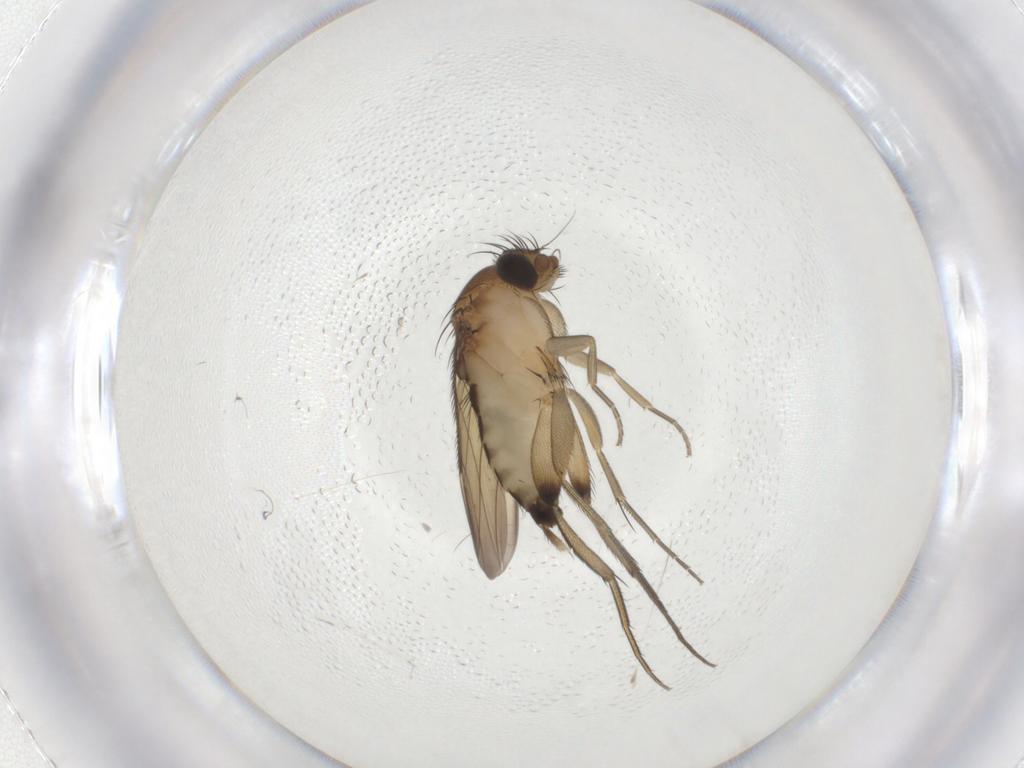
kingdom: Animalia
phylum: Arthropoda
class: Insecta
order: Diptera
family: Phoridae
